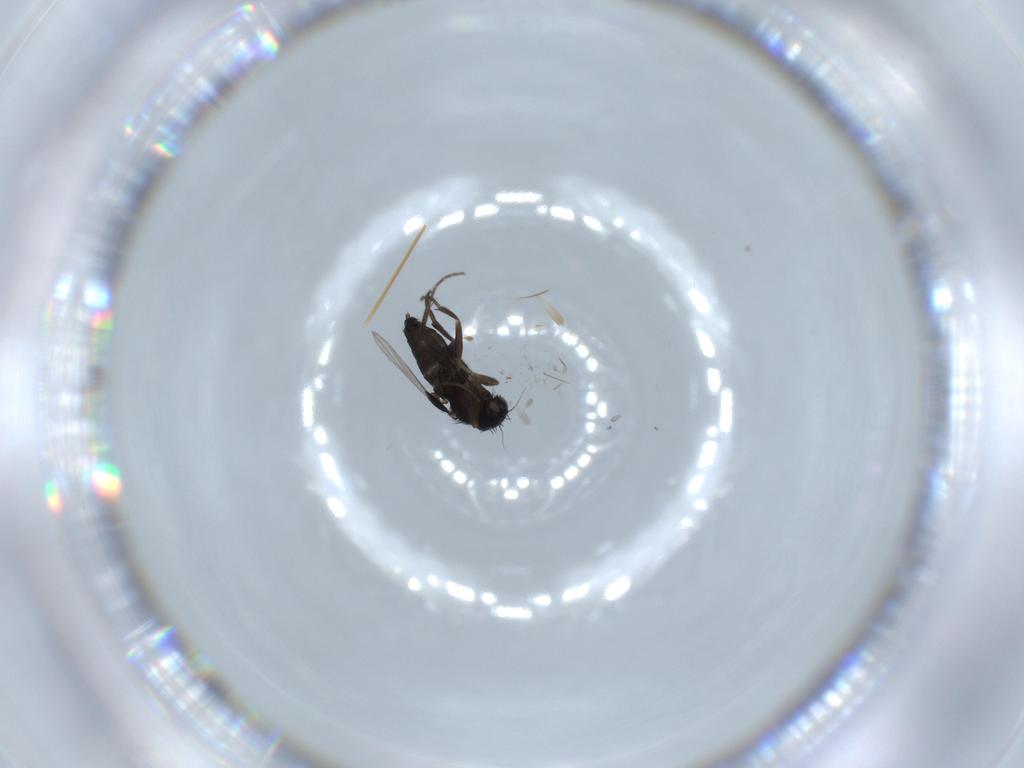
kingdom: Animalia
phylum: Arthropoda
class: Insecta
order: Diptera
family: Phoridae
